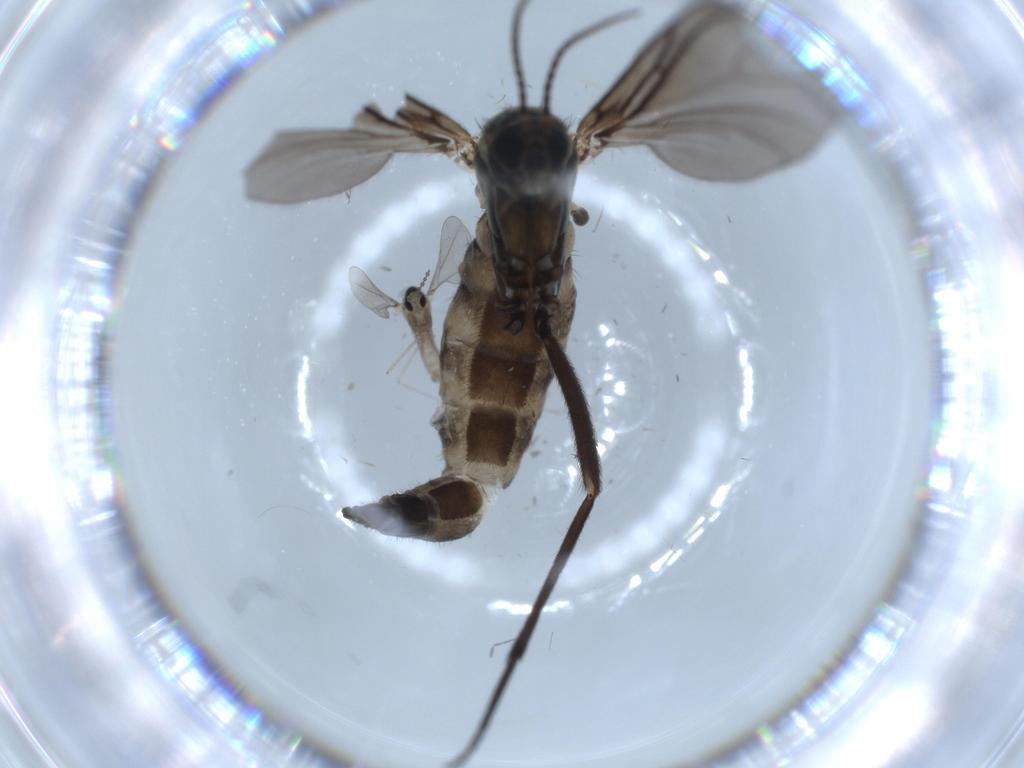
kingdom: Animalia
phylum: Arthropoda
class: Insecta
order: Diptera
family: Sciaridae
